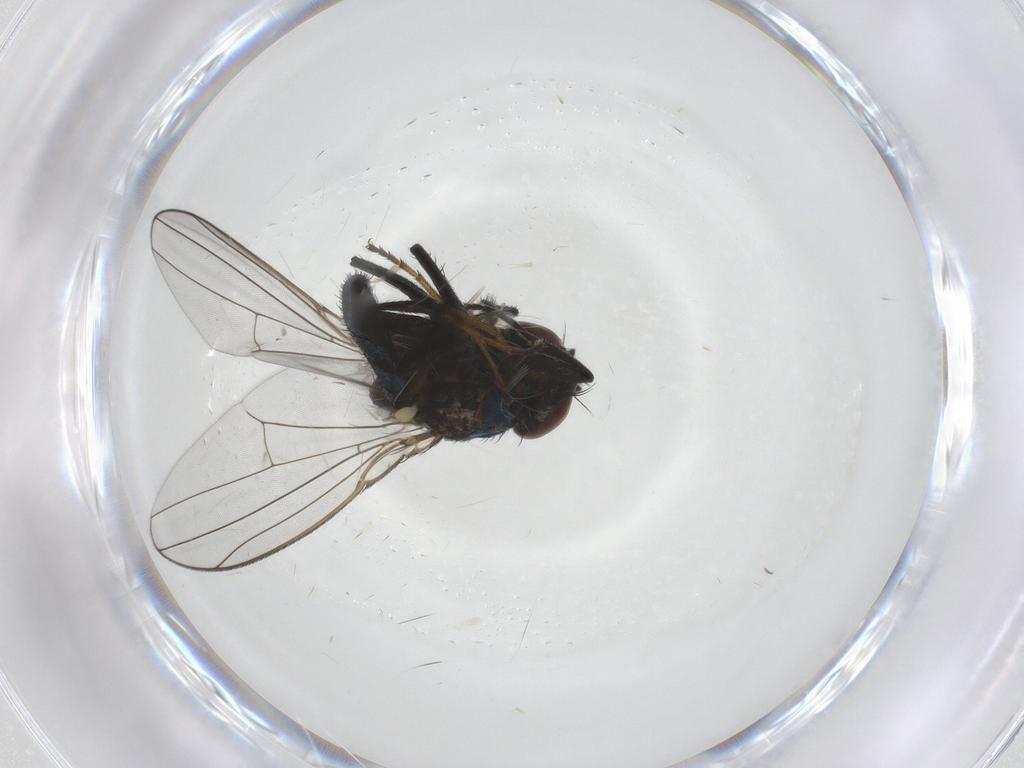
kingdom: Animalia
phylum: Arthropoda
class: Insecta
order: Diptera
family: Ephydridae
